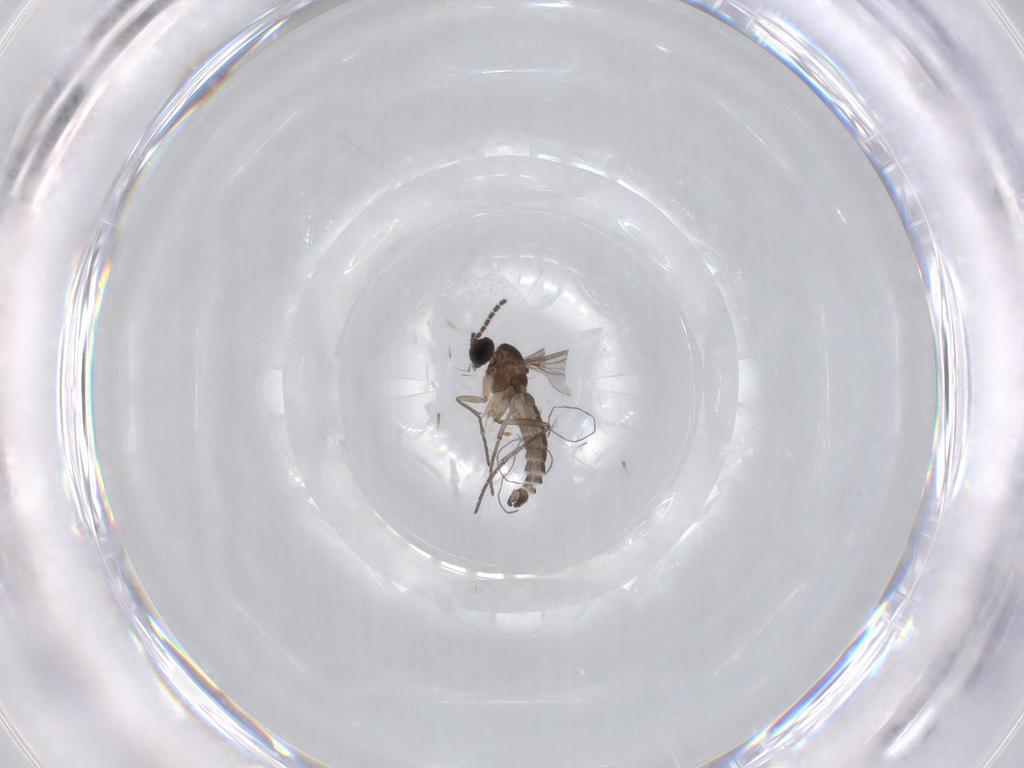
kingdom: Animalia
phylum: Arthropoda
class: Insecta
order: Diptera
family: Sciaridae
